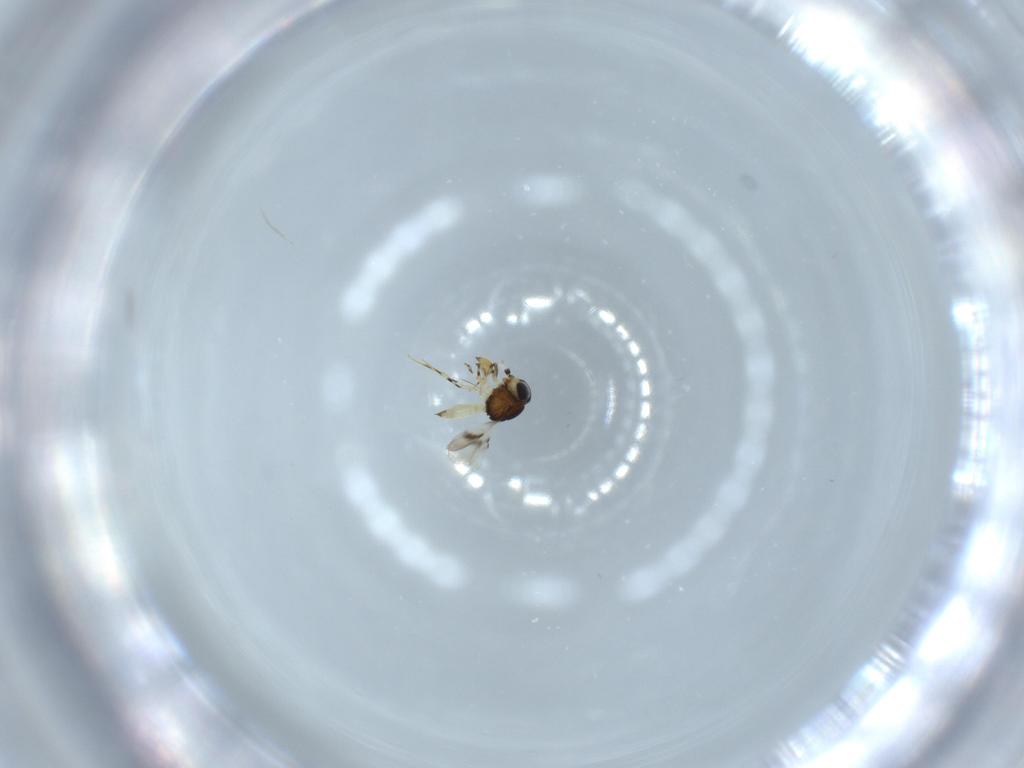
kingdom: Animalia
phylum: Arthropoda
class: Insecta
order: Hymenoptera
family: Scelionidae
